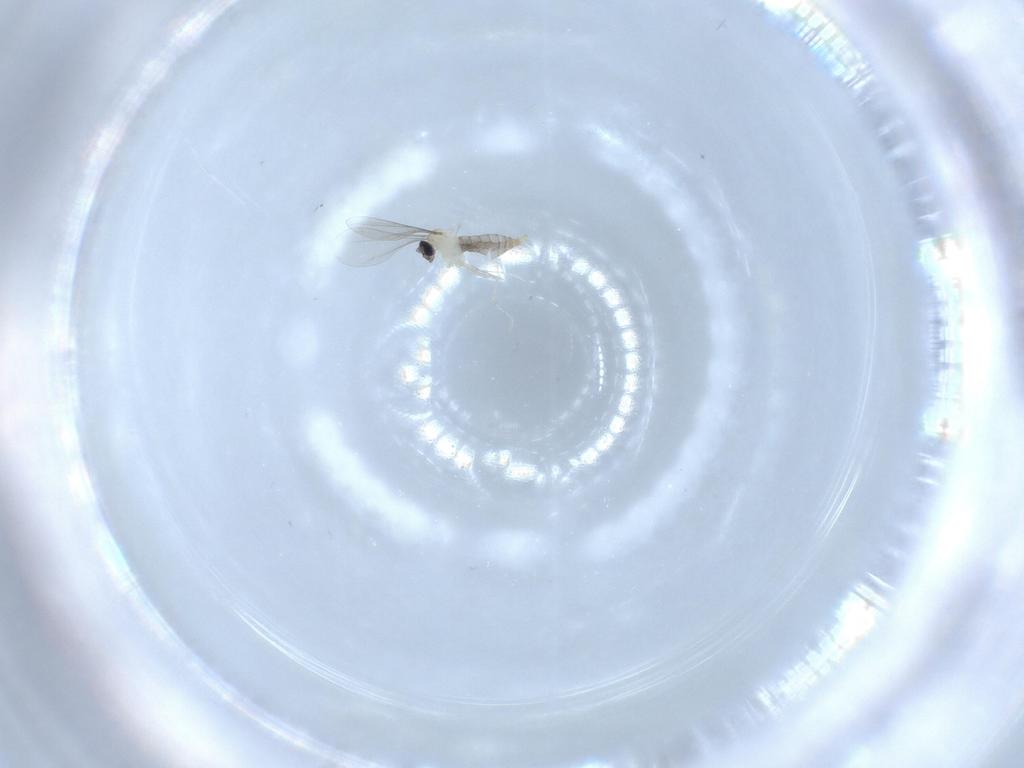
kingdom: Animalia
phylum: Arthropoda
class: Insecta
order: Diptera
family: Cecidomyiidae
